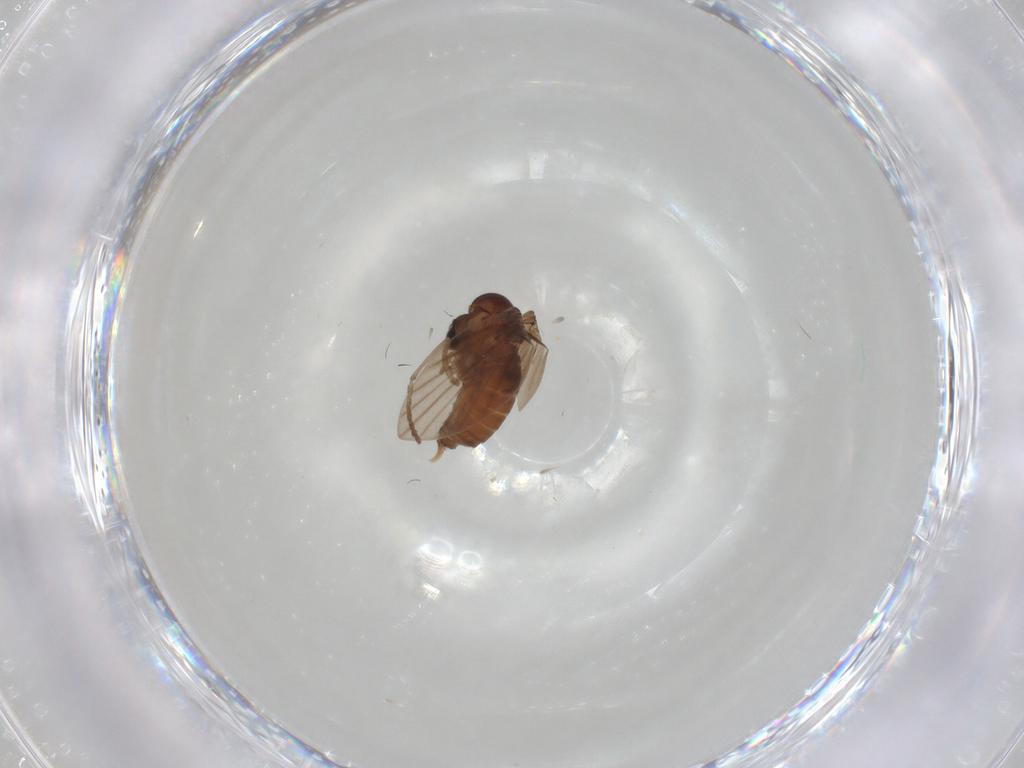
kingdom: Animalia
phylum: Arthropoda
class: Insecta
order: Diptera
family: Psychodidae
